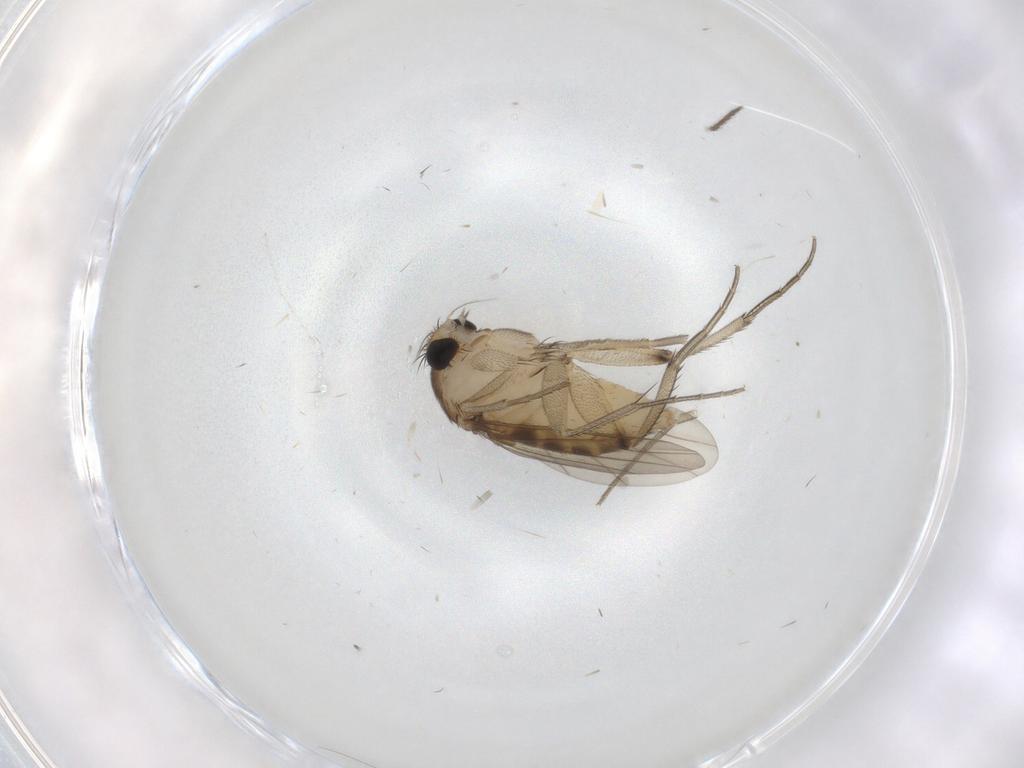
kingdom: Animalia
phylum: Arthropoda
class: Insecta
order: Diptera
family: Phoridae
